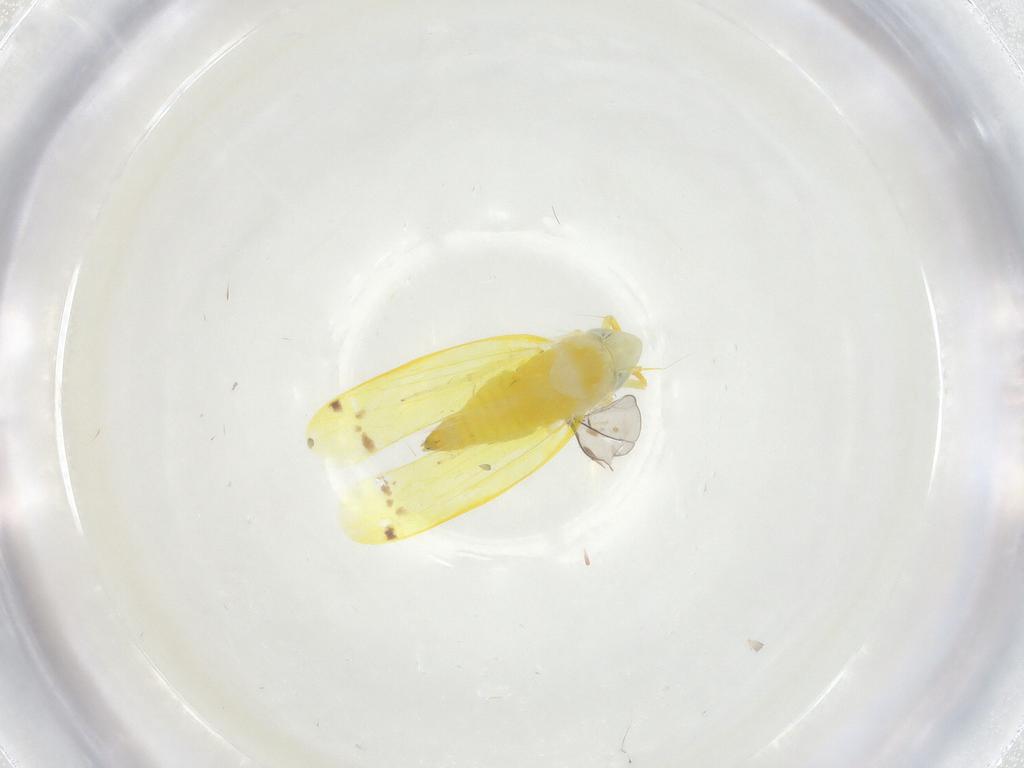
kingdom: Animalia
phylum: Arthropoda
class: Insecta
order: Hemiptera
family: Cicadellidae
